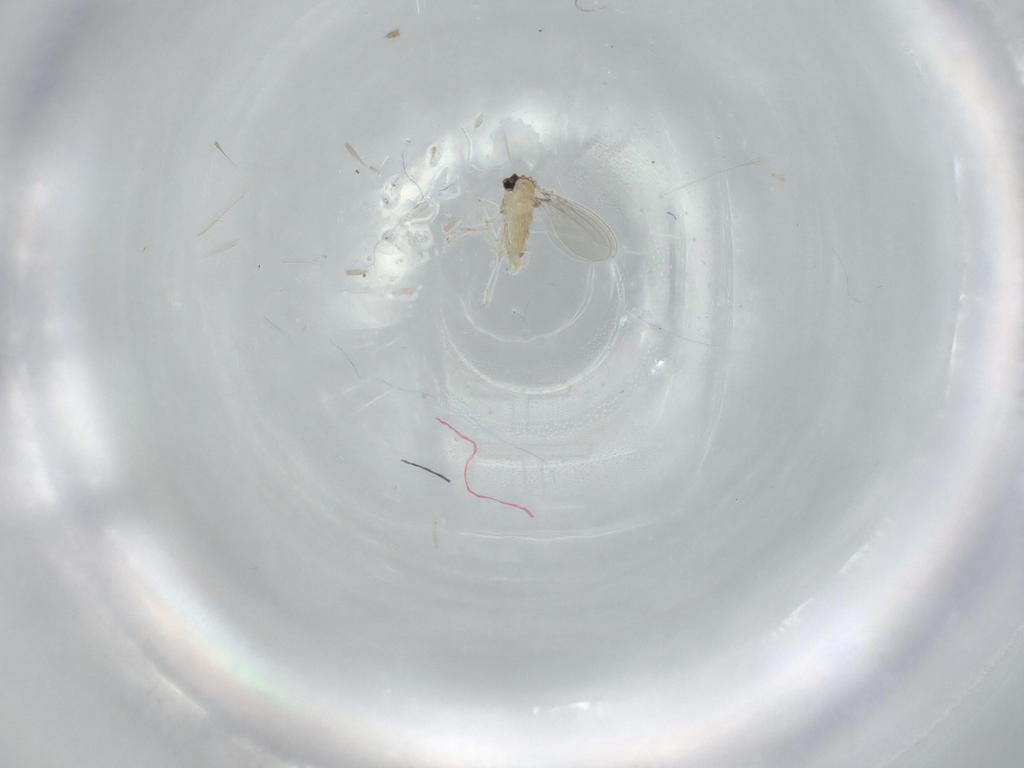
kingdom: Animalia
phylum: Arthropoda
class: Insecta
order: Diptera
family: Cecidomyiidae
